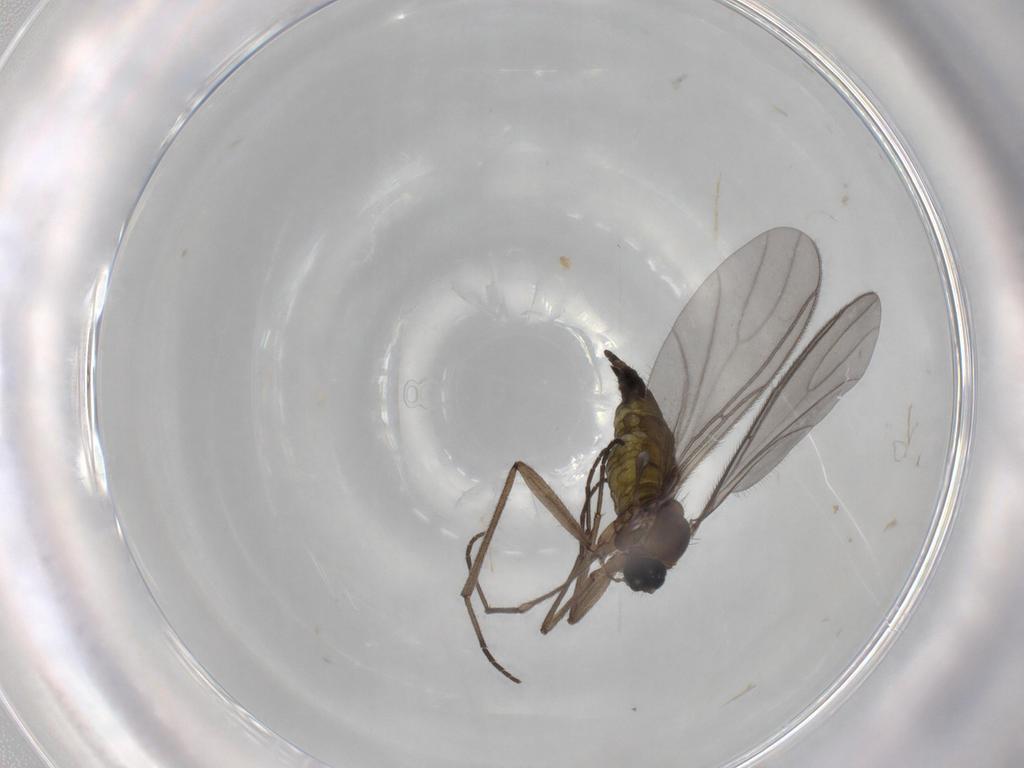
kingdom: Animalia
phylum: Arthropoda
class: Insecta
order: Diptera
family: Sciaridae
